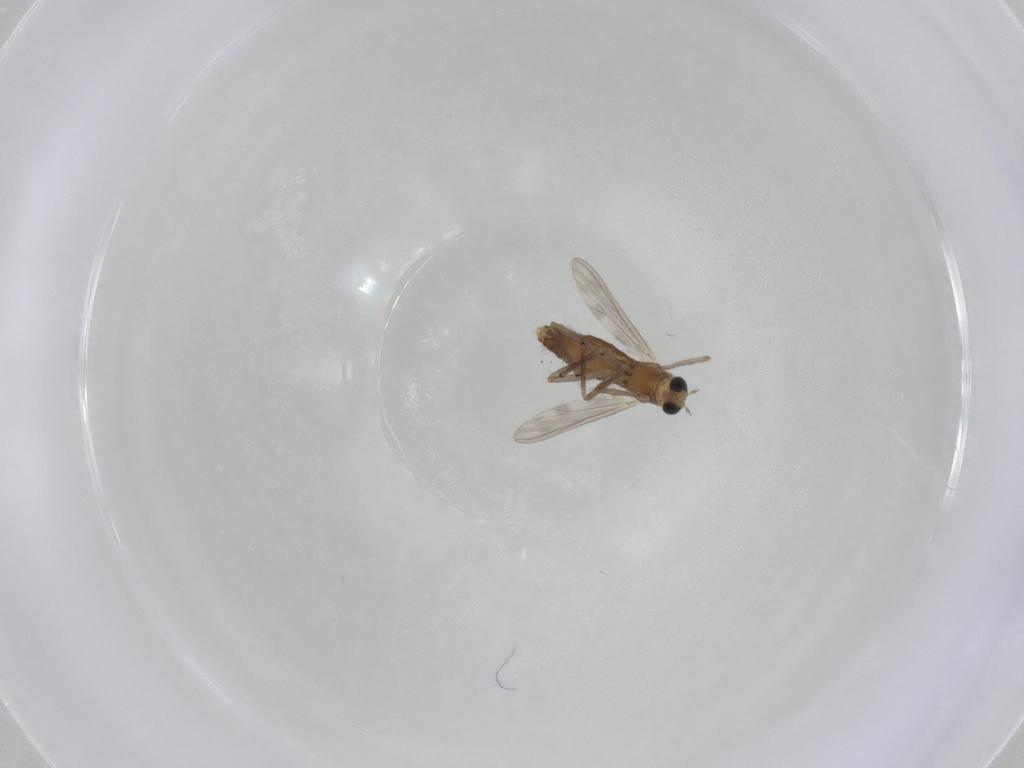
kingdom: Animalia
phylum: Arthropoda
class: Insecta
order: Diptera
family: Chironomidae
